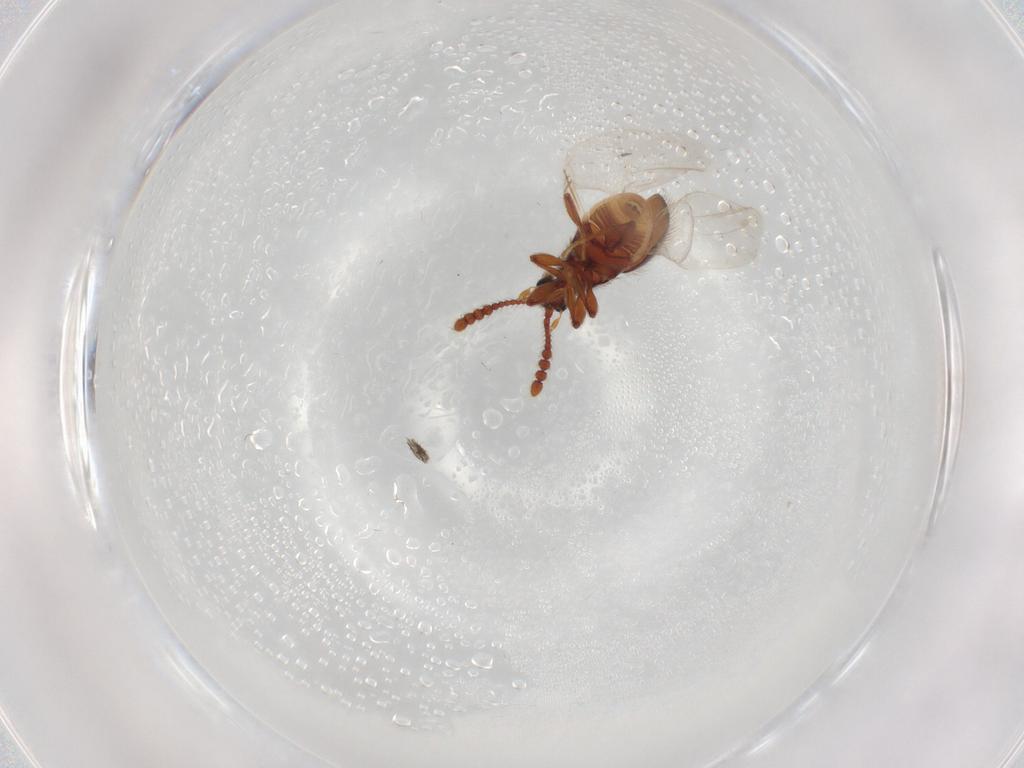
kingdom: Animalia
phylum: Arthropoda
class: Insecta
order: Coleoptera
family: Staphylinidae
